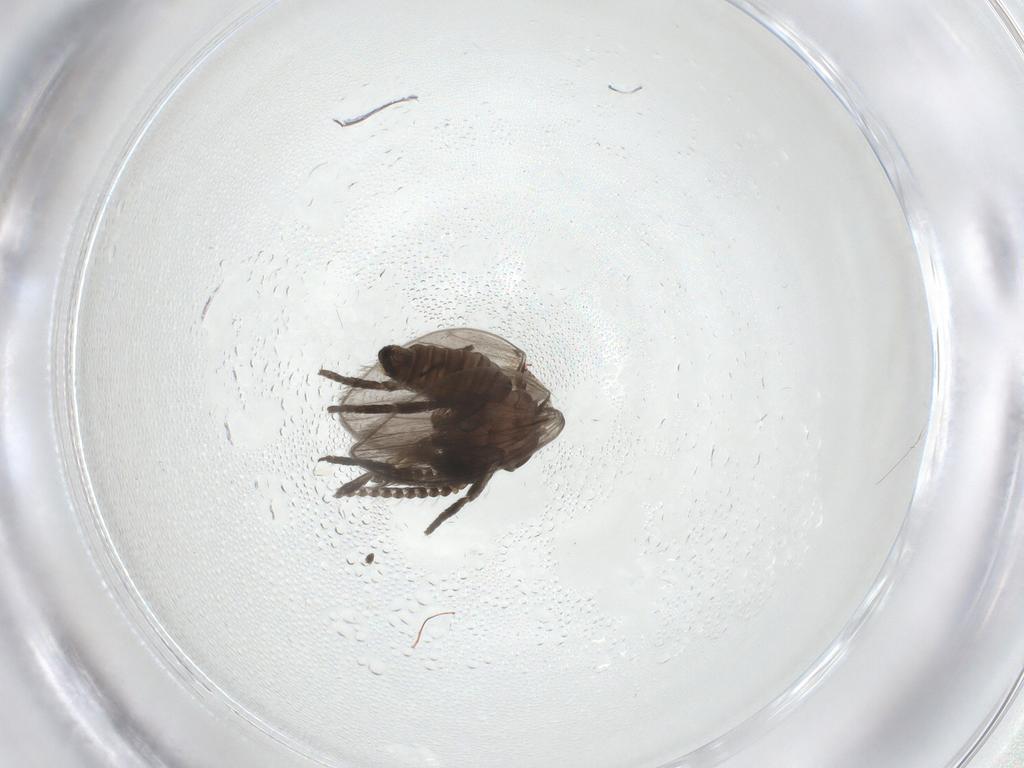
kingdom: Animalia
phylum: Arthropoda
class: Insecta
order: Diptera
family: Psychodidae
